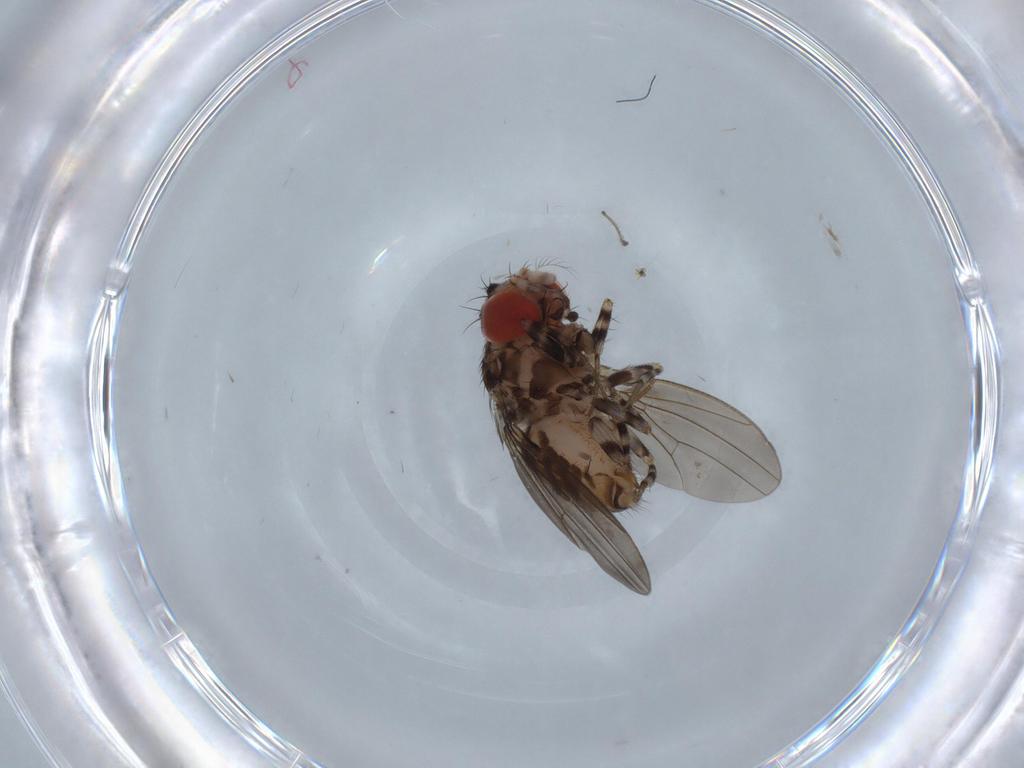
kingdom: Animalia
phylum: Arthropoda
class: Insecta
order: Diptera
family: Drosophilidae
